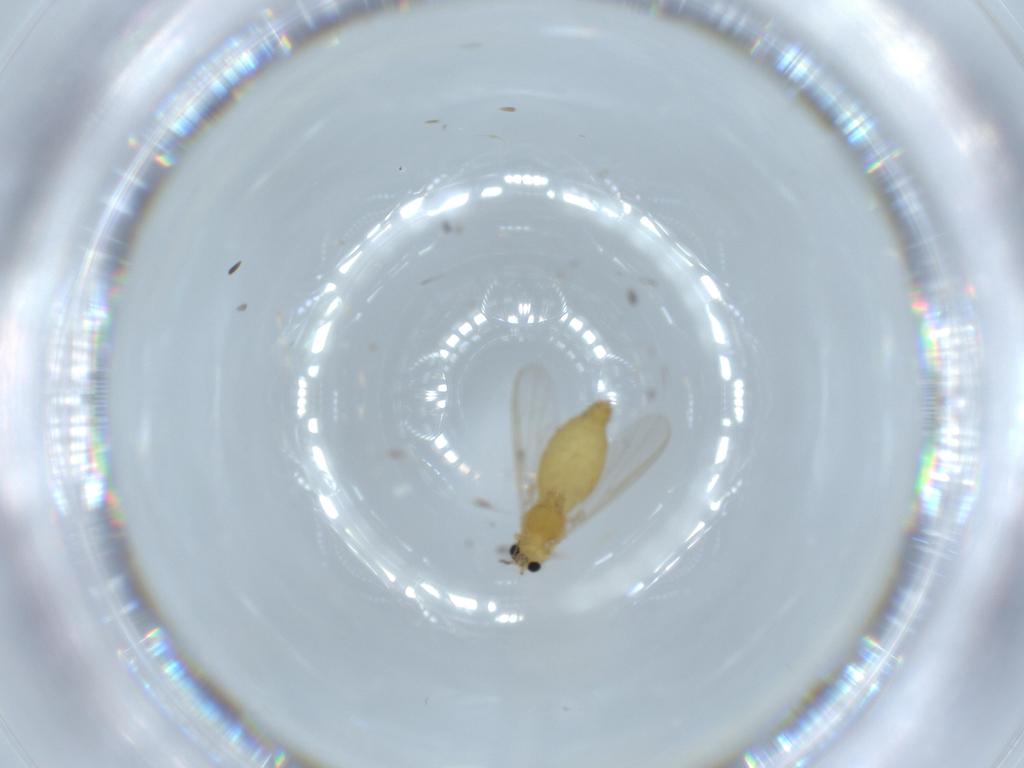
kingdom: Animalia
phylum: Arthropoda
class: Insecta
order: Diptera
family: Chironomidae
